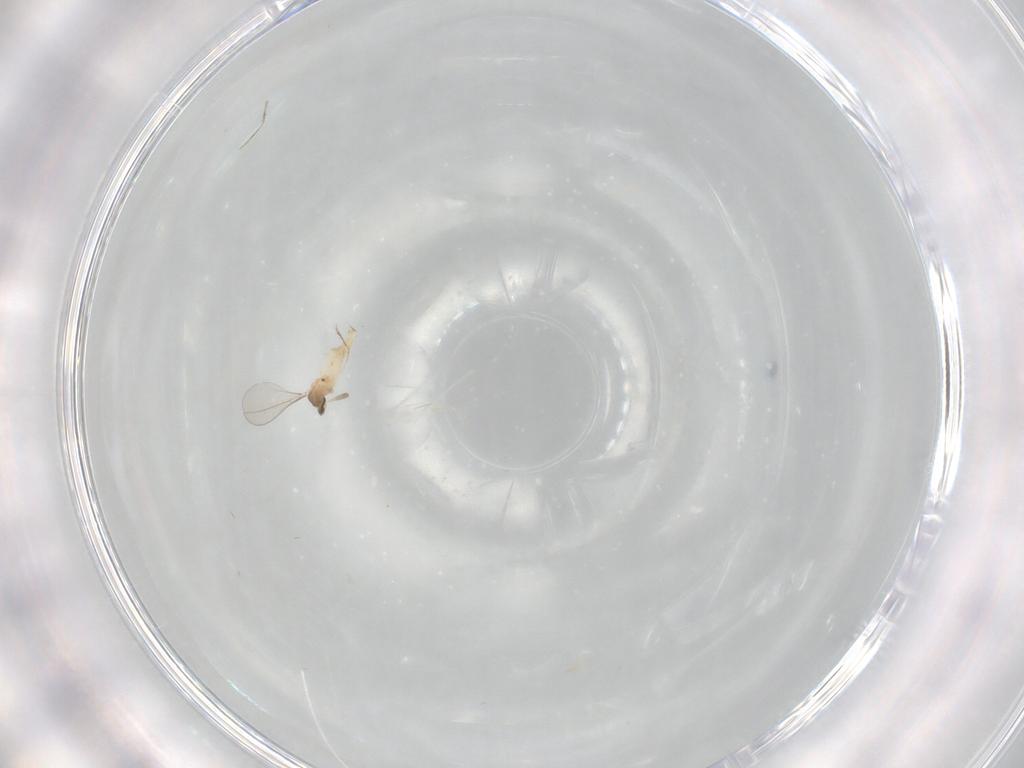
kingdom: Animalia
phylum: Arthropoda
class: Insecta
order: Diptera
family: Cecidomyiidae
